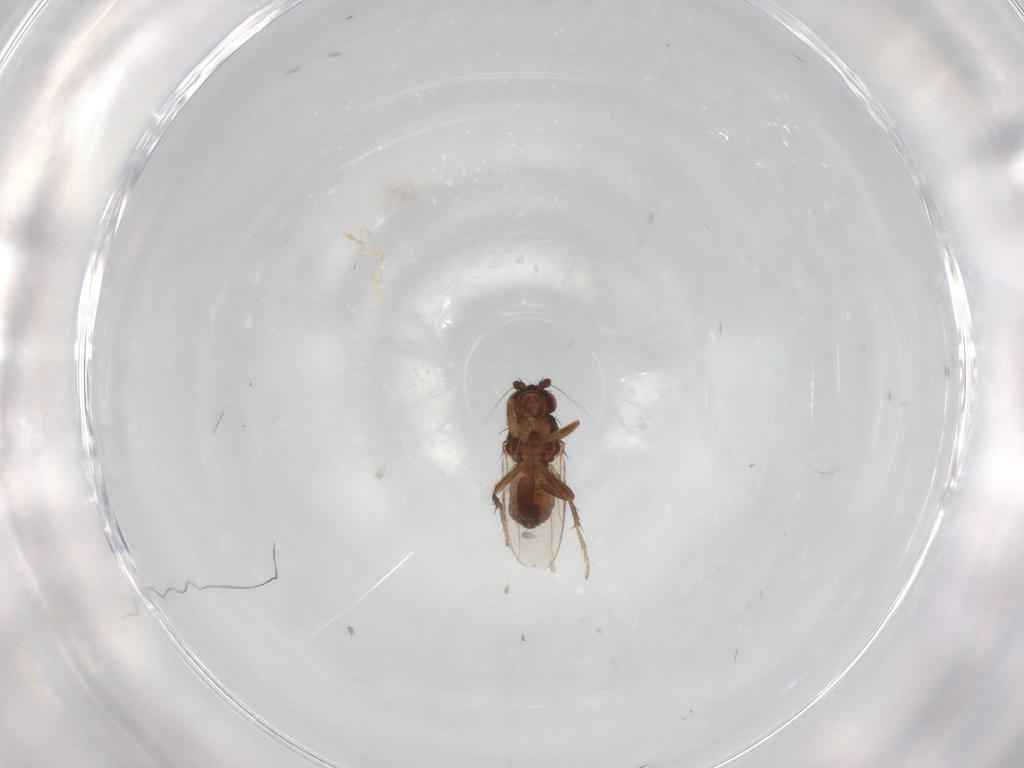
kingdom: Animalia
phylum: Arthropoda
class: Insecta
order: Diptera
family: Sphaeroceridae
